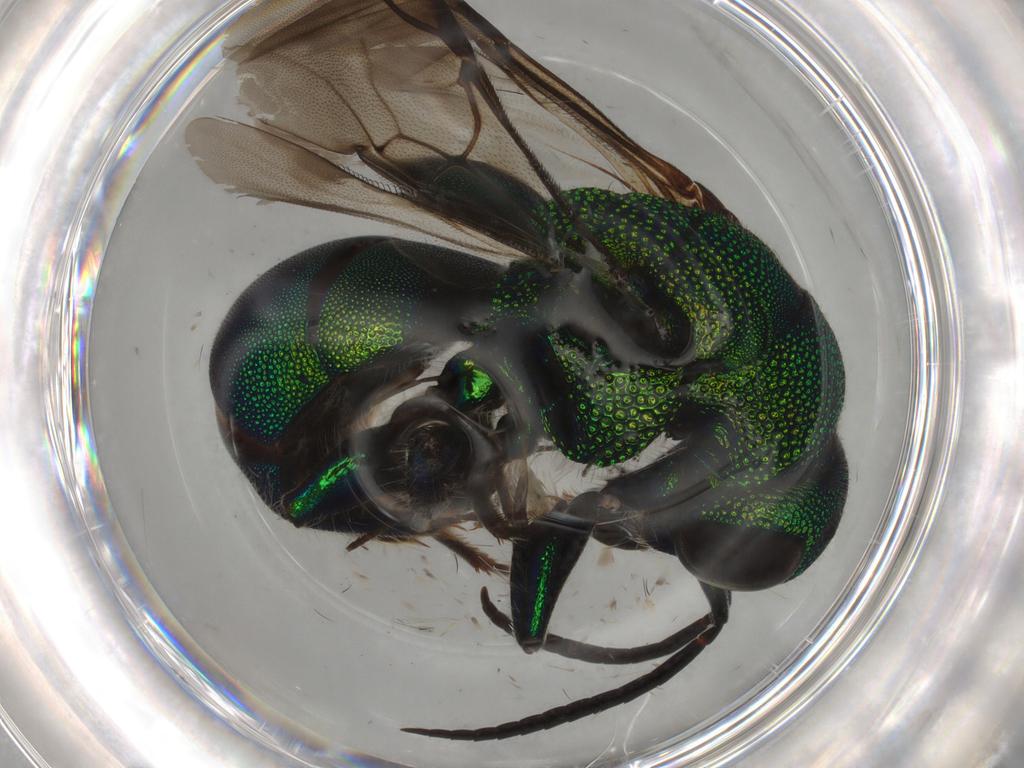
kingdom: Animalia
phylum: Arthropoda
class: Insecta
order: Hymenoptera
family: Chrysididae
